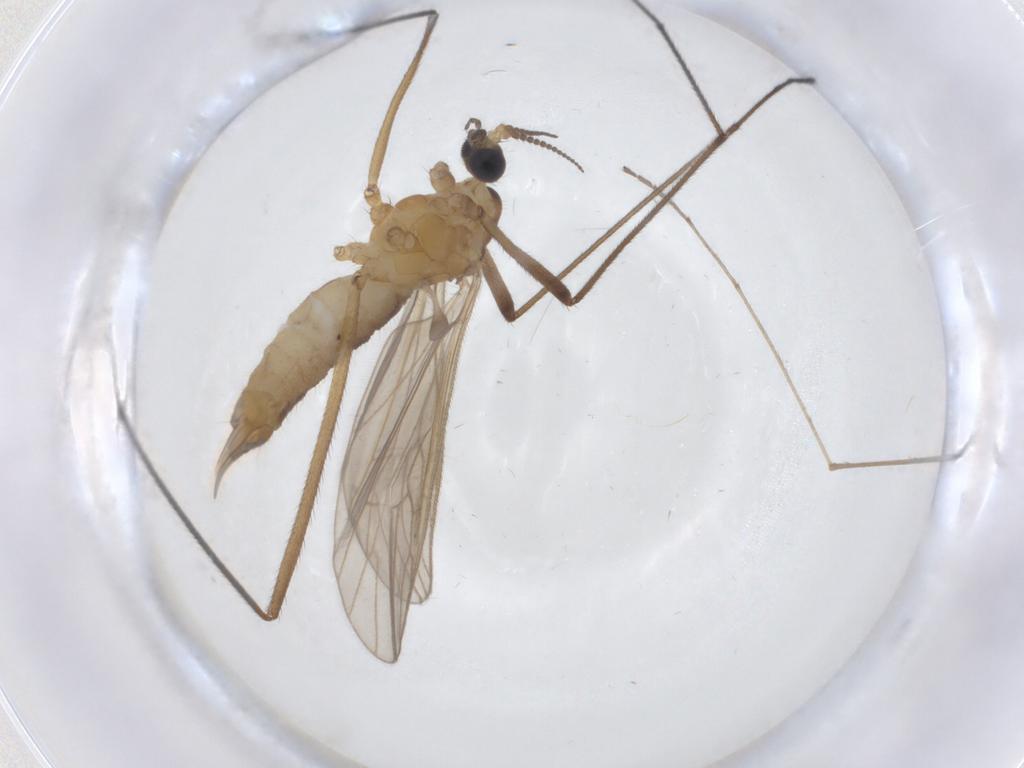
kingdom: Animalia
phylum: Arthropoda
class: Insecta
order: Diptera
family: Limoniidae
